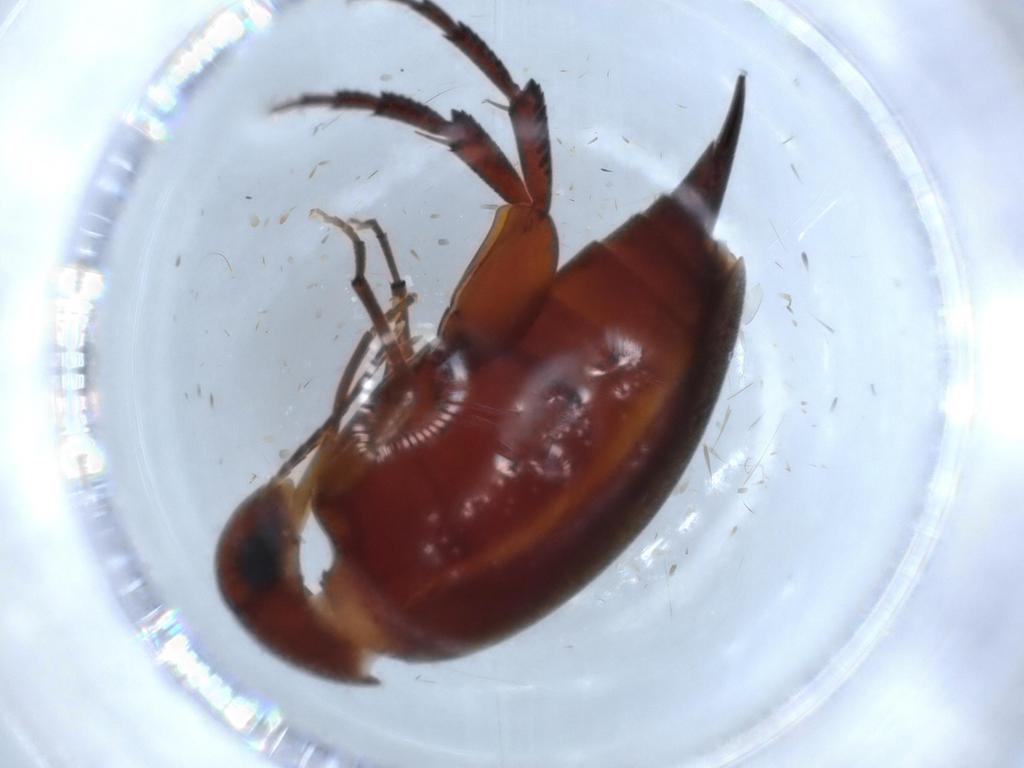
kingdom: Animalia
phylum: Arthropoda
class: Insecta
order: Coleoptera
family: Mordellidae
